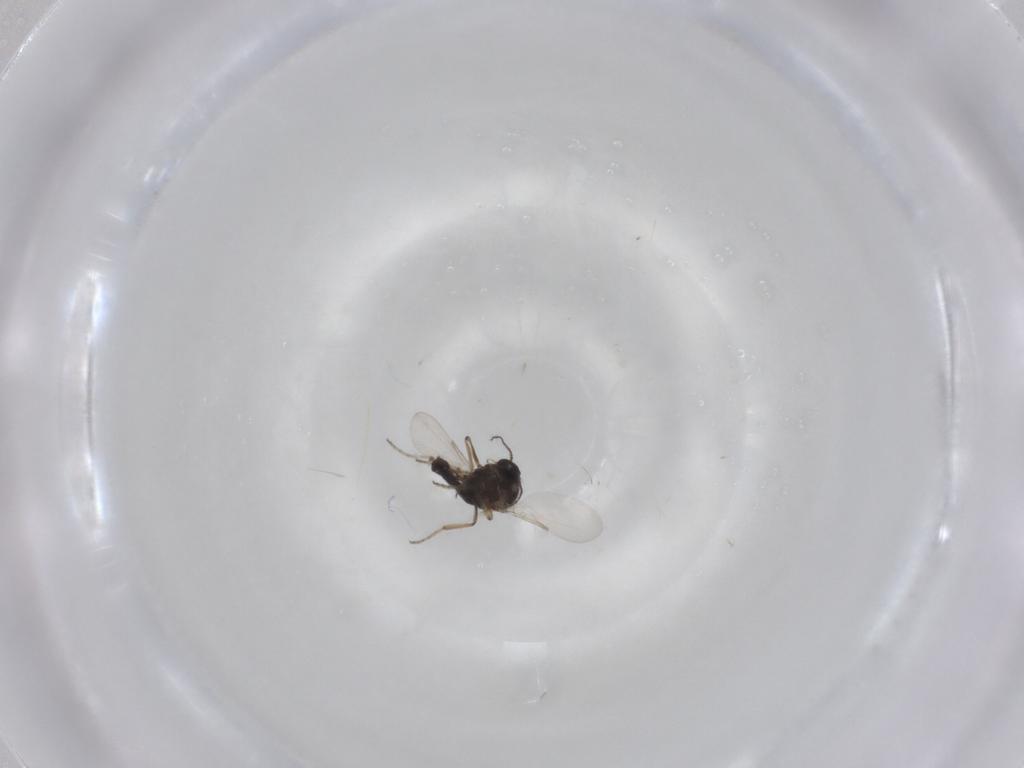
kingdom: Animalia
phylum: Arthropoda
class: Insecta
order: Diptera
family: Ceratopogonidae
